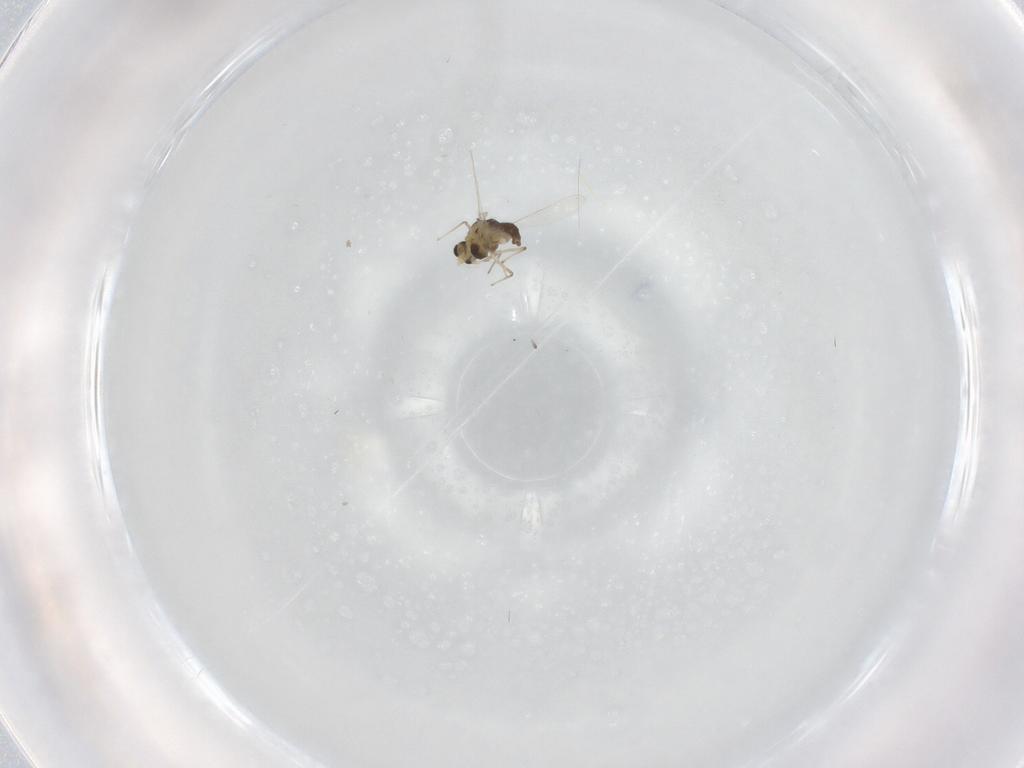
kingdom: Animalia
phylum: Arthropoda
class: Insecta
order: Diptera
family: Chironomidae
